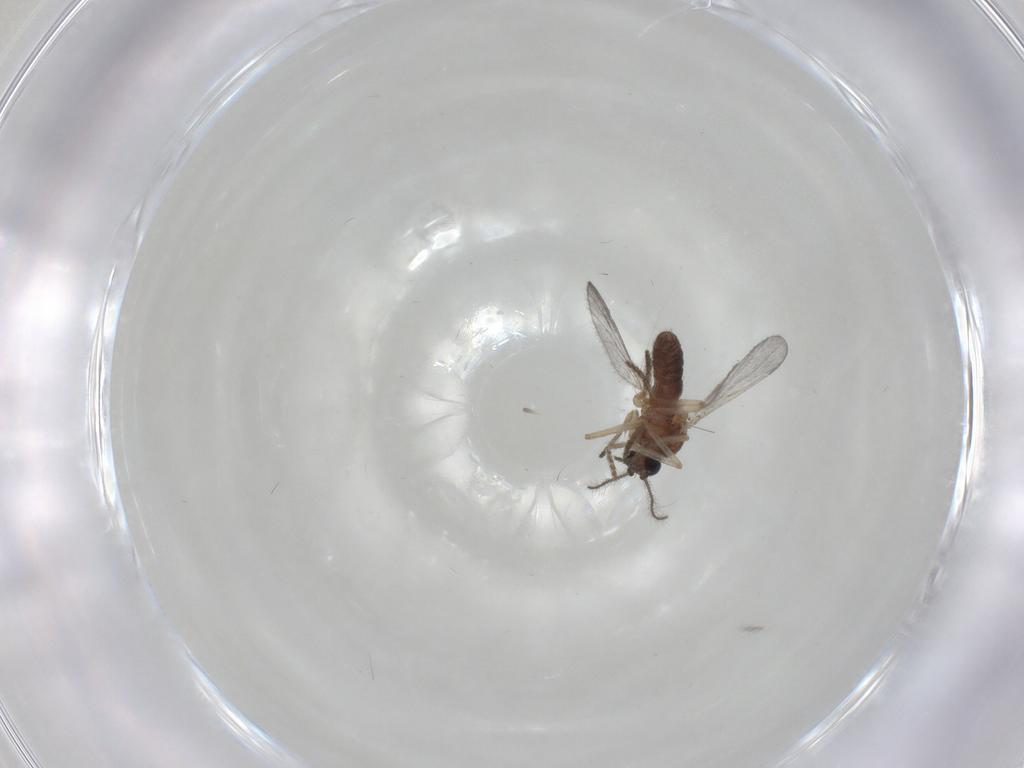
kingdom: Animalia
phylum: Arthropoda
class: Insecta
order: Diptera
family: Ceratopogonidae
